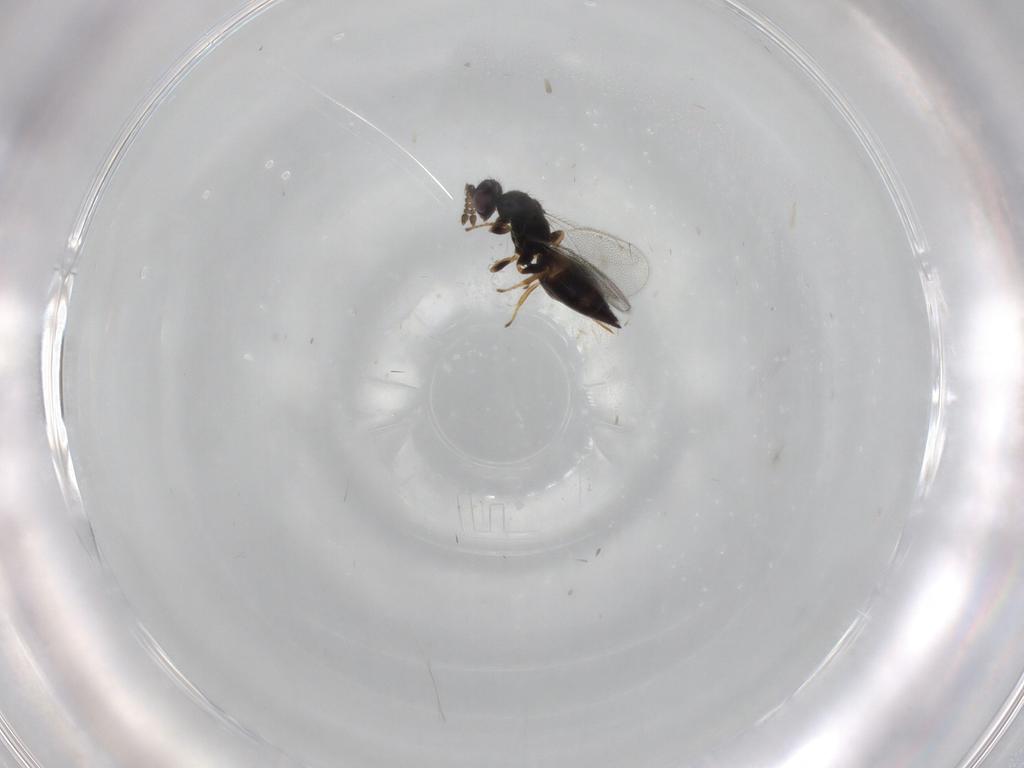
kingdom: Animalia
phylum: Arthropoda
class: Insecta
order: Hymenoptera
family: Eulophidae
